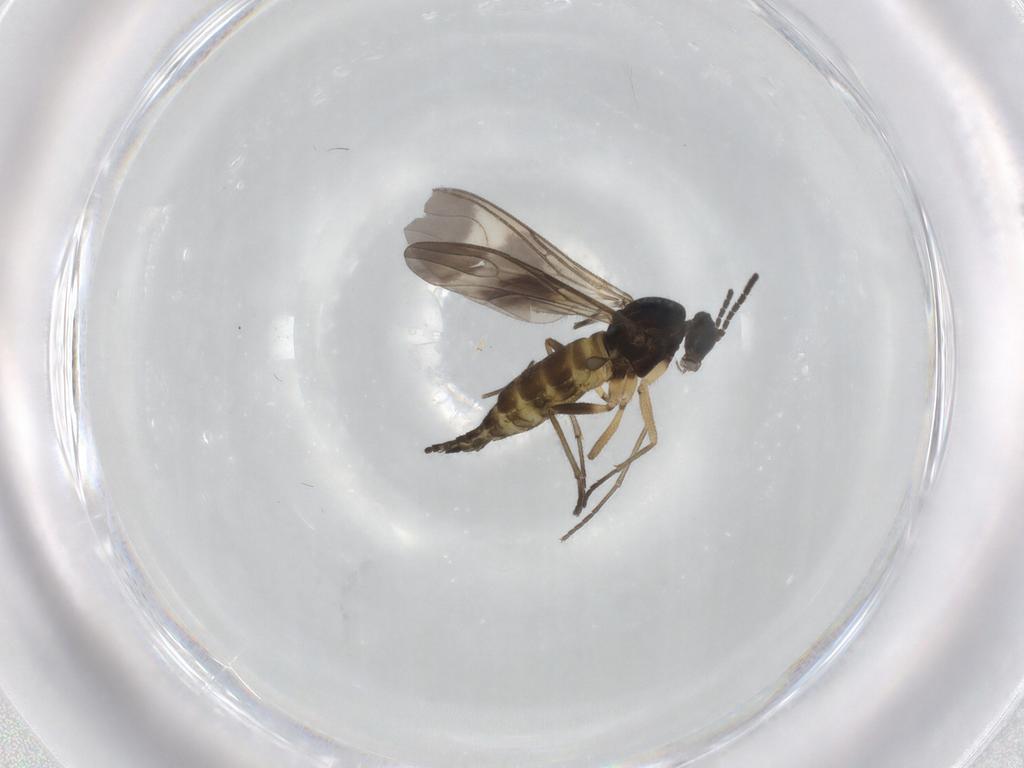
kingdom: Animalia
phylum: Arthropoda
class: Insecta
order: Diptera
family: Sciaridae
